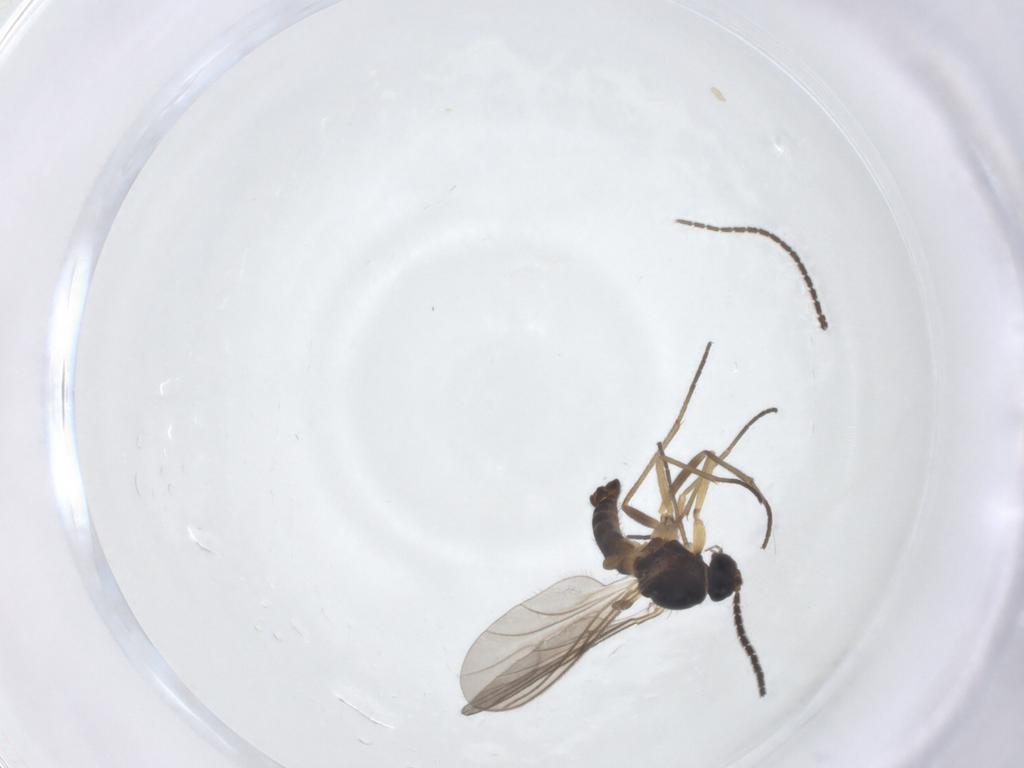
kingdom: Animalia
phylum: Arthropoda
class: Insecta
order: Diptera
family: Sciaridae
